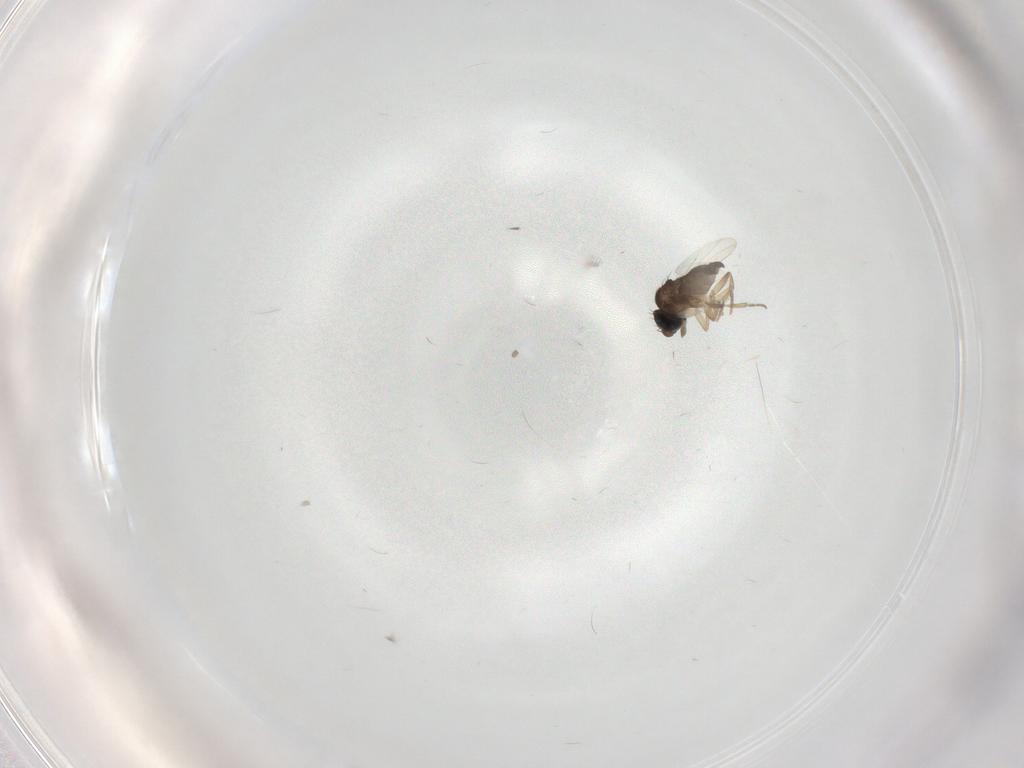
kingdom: Animalia
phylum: Arthropoda
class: Insecta
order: Diptera
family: Phoridae
